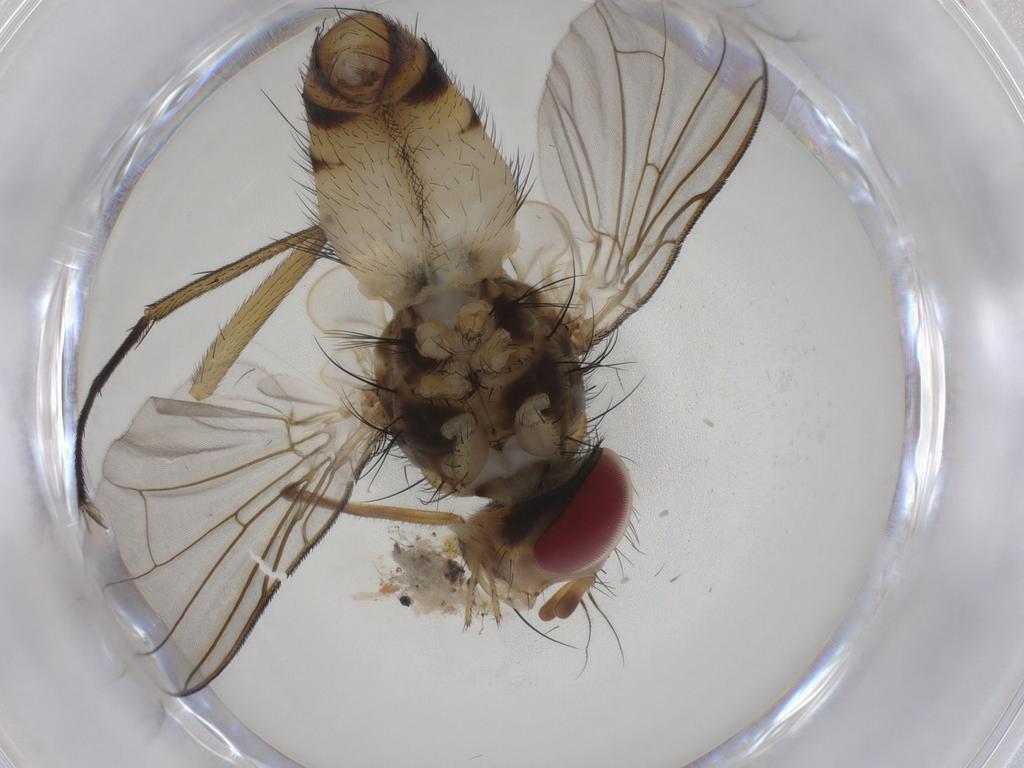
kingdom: Animalia
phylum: Arthropoda
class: Insecta
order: Diptera
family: Tachinidae
